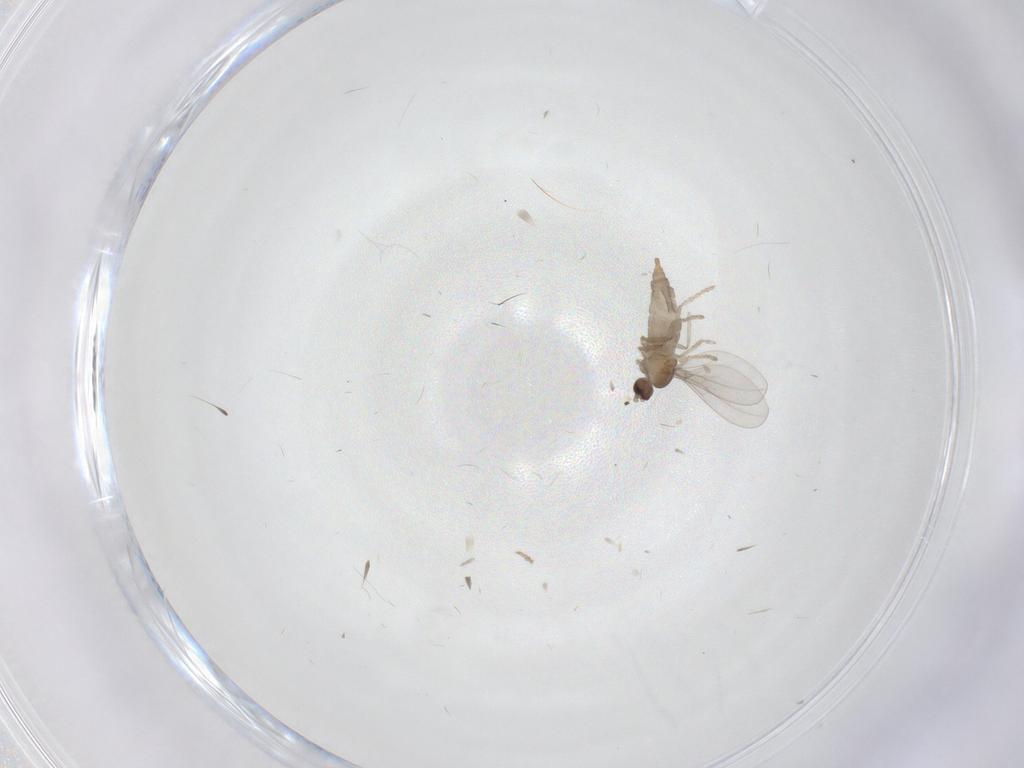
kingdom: Animalia
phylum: Arthropoda
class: Insecta
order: Diptera
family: Cecidomyiidae
